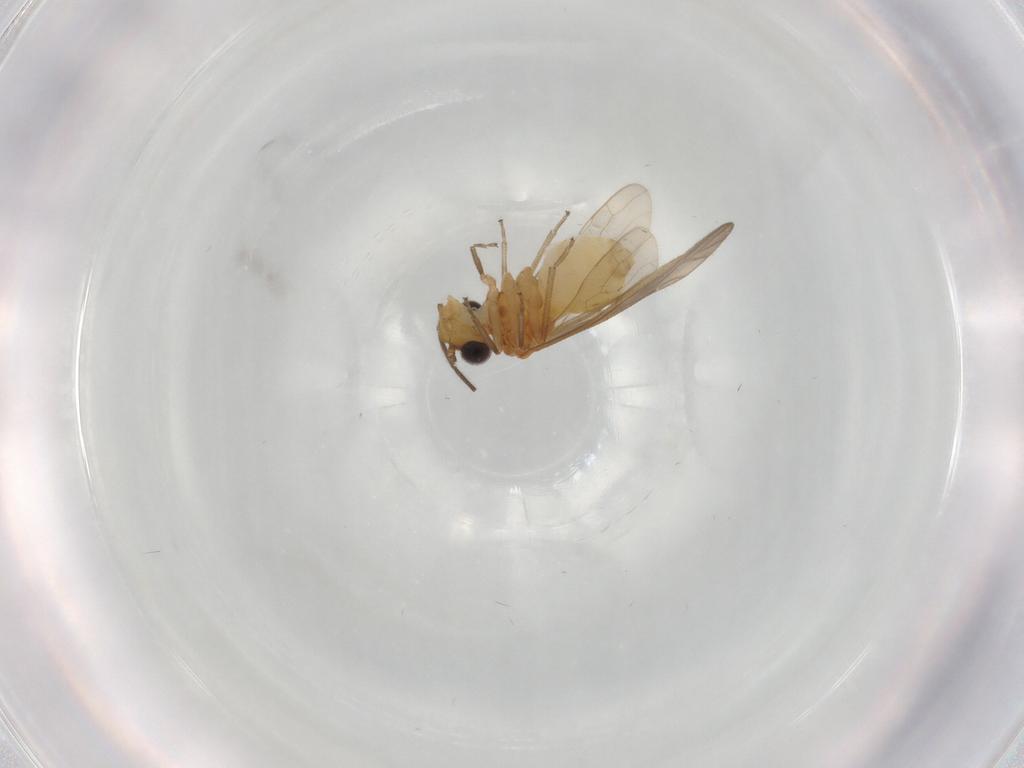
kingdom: Animalia
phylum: Arthropoda
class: Insecta
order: Psocodea
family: Caeciliusidae
